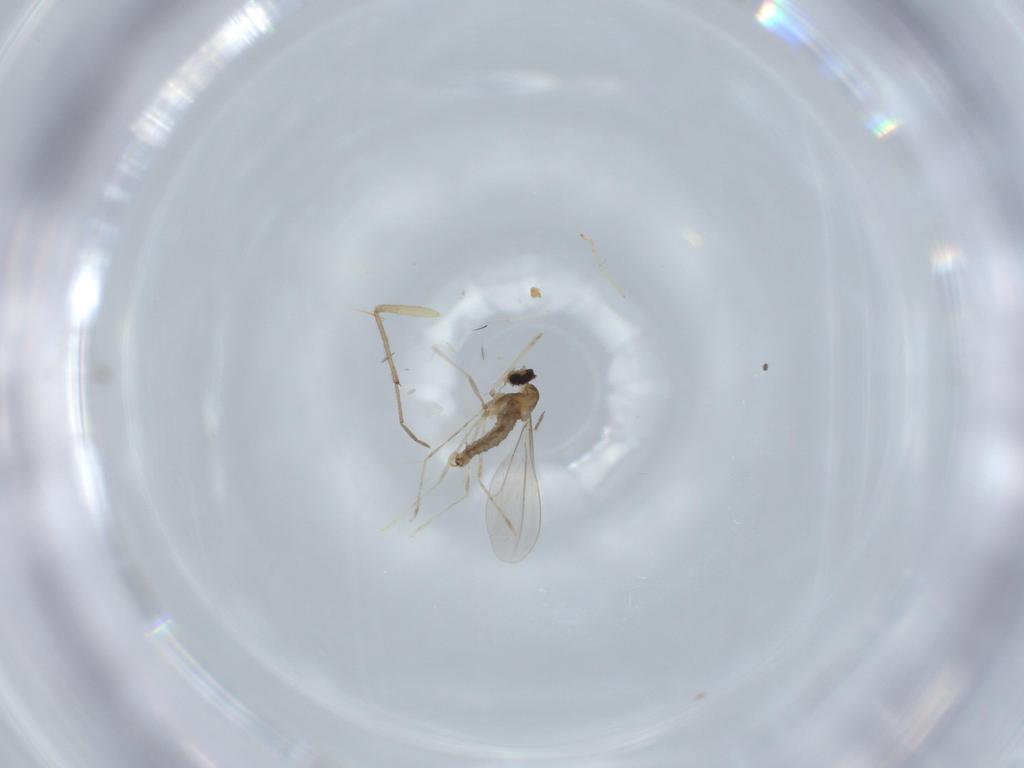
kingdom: Animalia
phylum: Arthropoda
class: Insecta
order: Diptera
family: Cecidomyiidae
